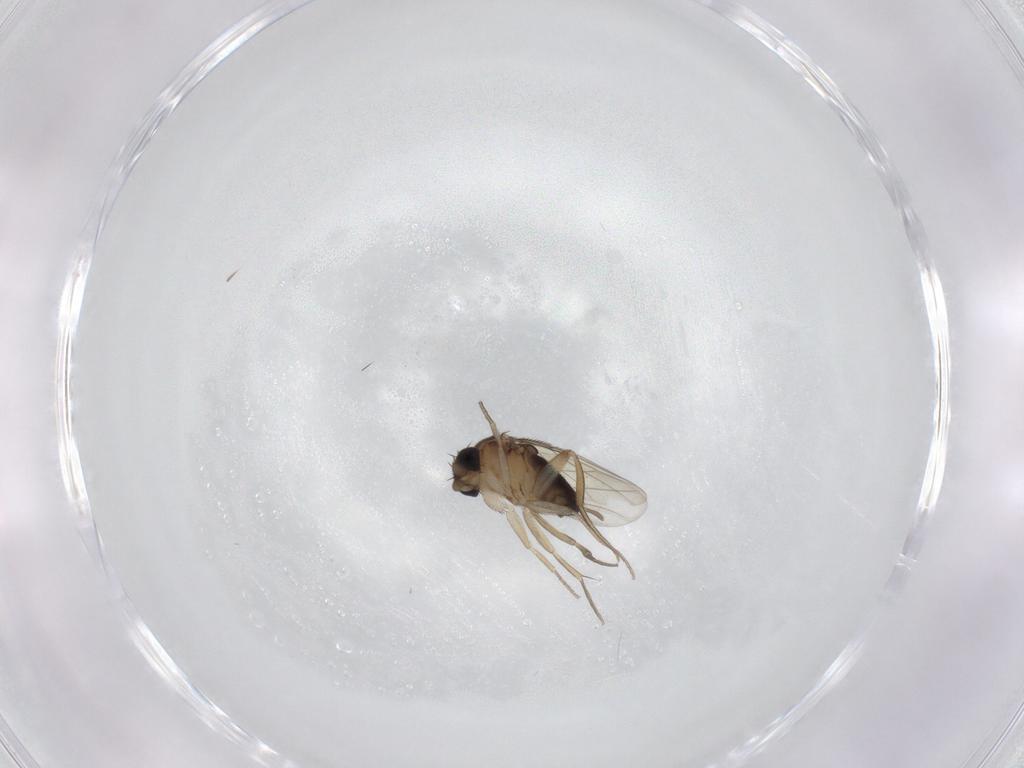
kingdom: Animalia
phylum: Arthropoda
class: Insecta
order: Diptera
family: Phoridae
